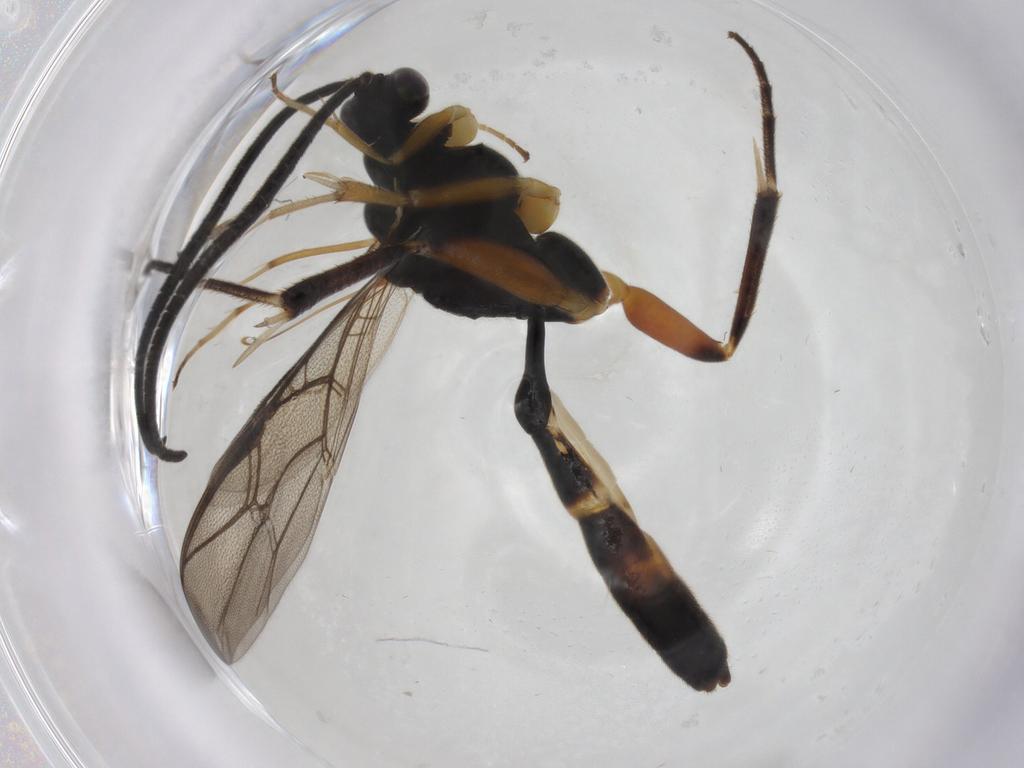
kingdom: Animalia
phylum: Arthropoda
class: Insecta
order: Hymenoptera
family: Ichneumonidae
